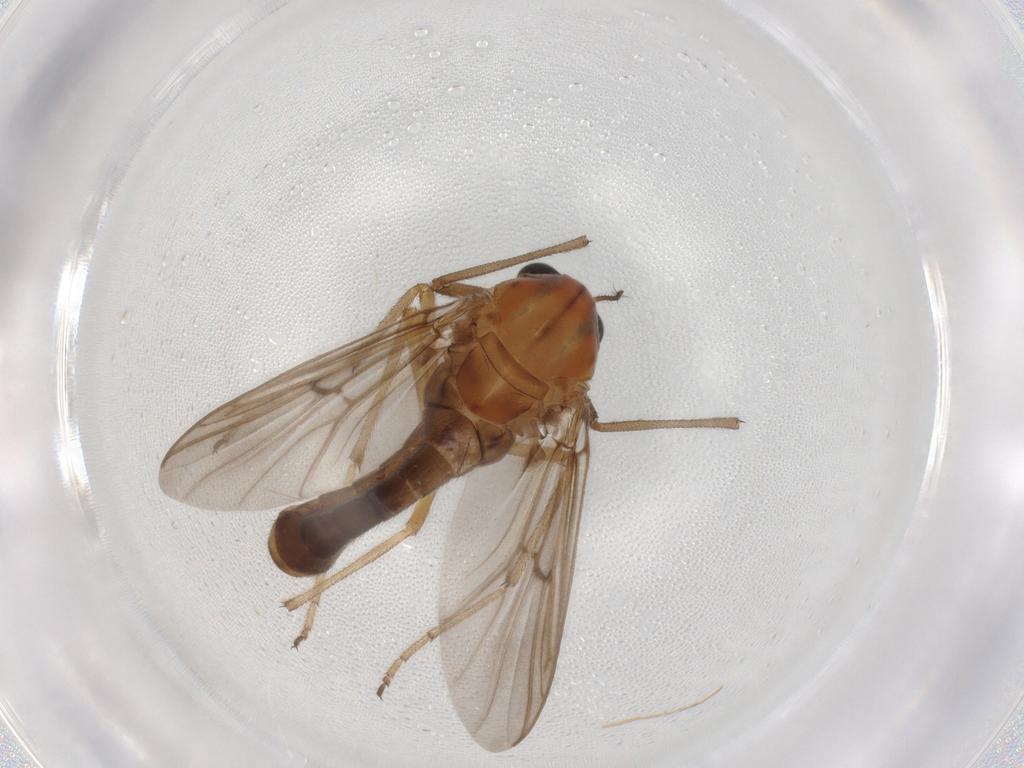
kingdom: Animalia
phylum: Arthropoda
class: Insecta
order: Diptera
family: Chironomidae
